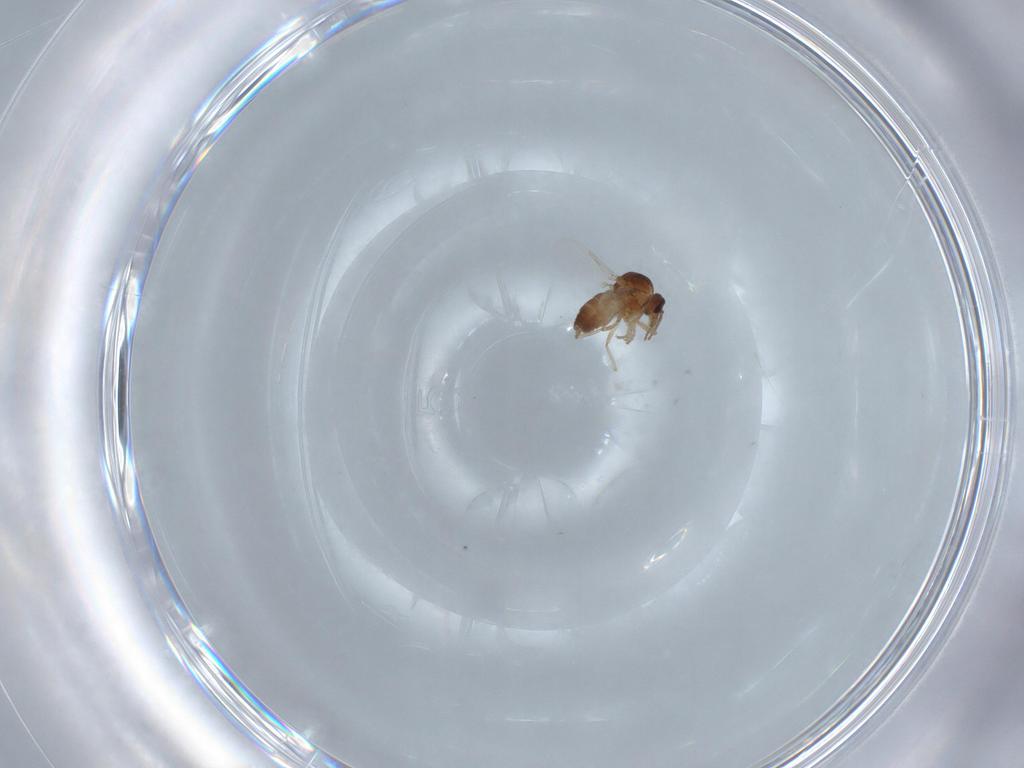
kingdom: Animalia
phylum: Arthropoda
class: Insecta
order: Diptera
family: Ceratopogonidae
